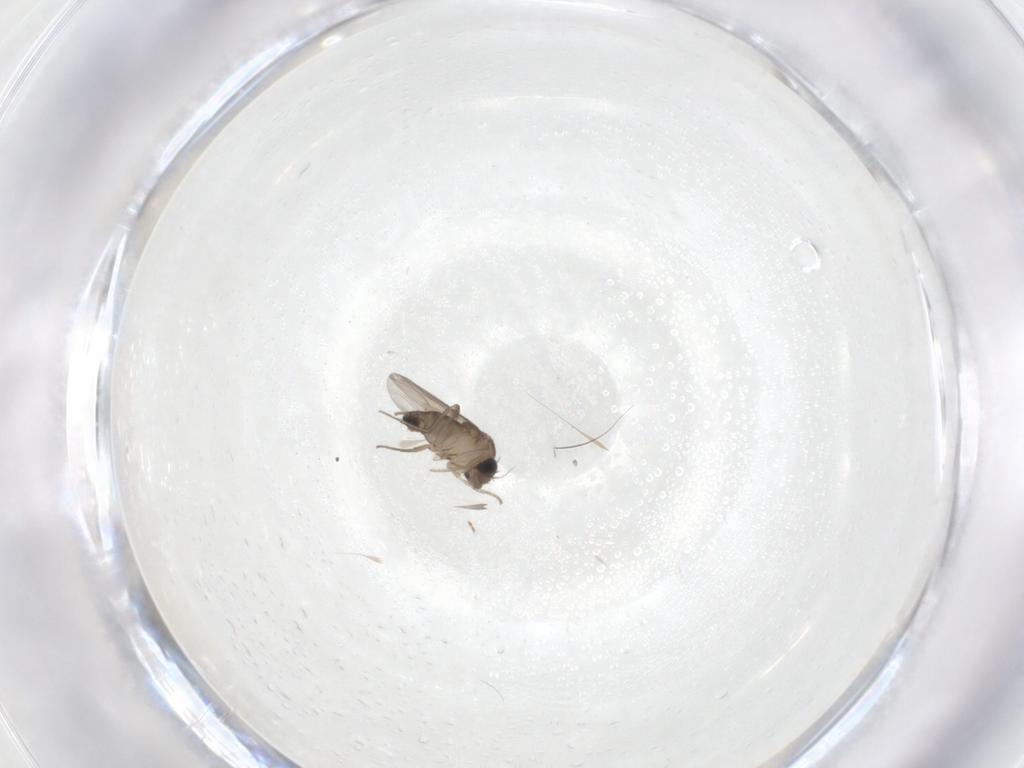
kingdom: Animalia
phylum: Arthropoda
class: Insecta
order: Diptera
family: Phoridae
